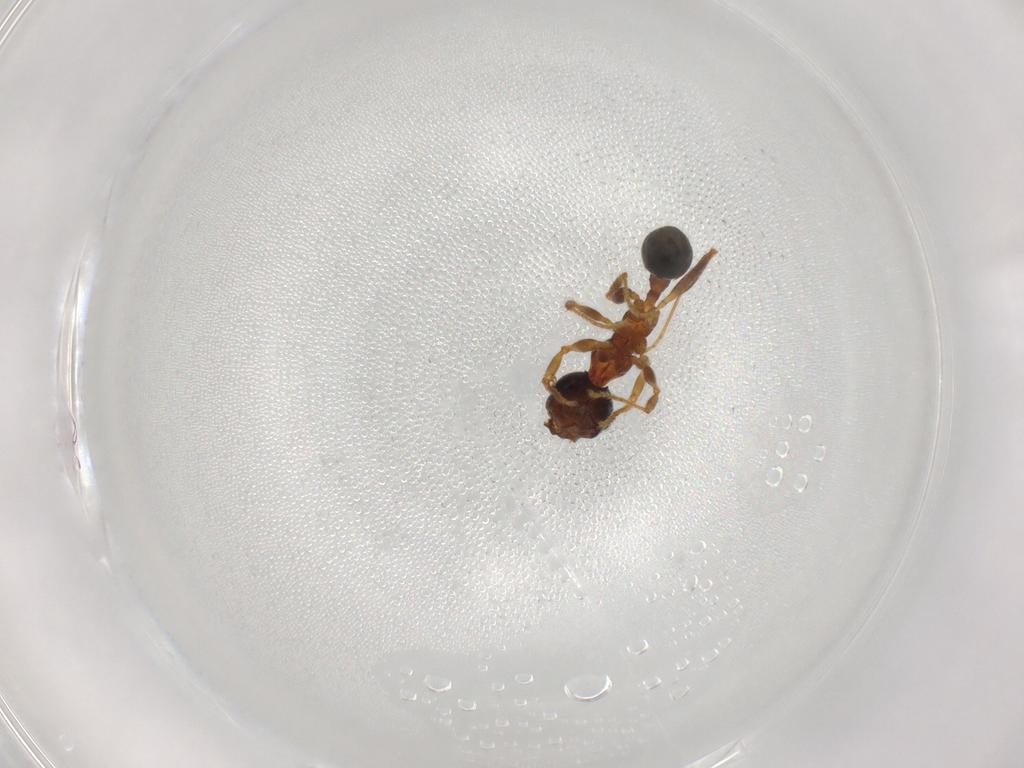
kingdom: Animalia
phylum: Arthropoda
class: Insecta
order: Hymenoptera
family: Formicidae
